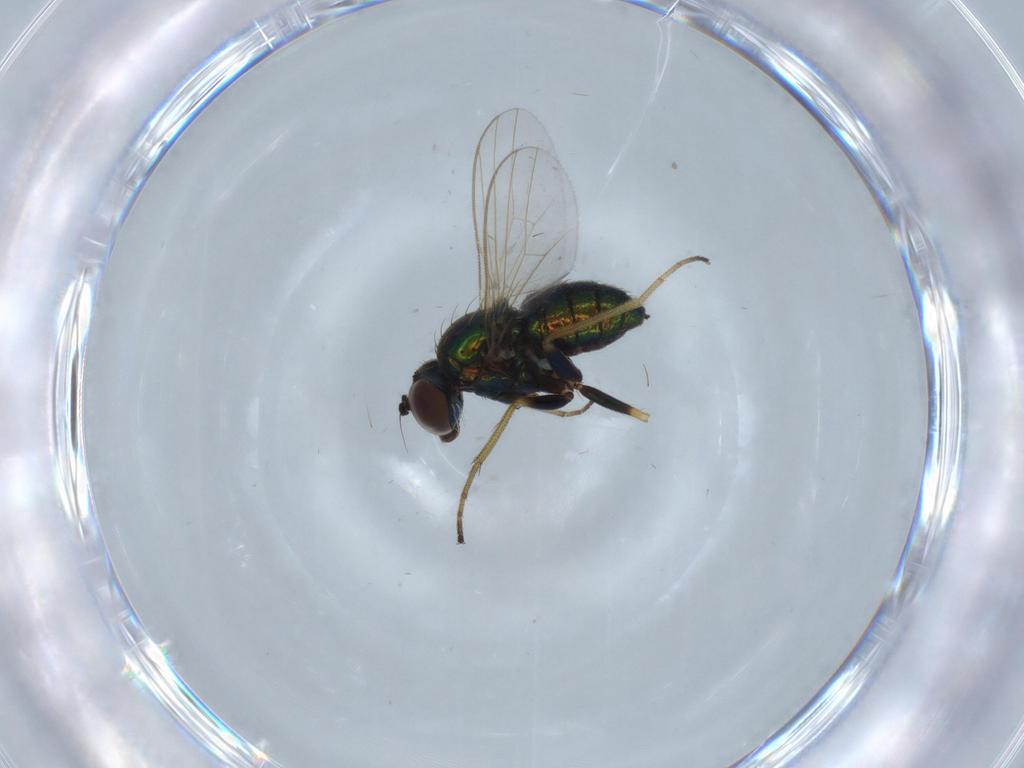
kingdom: Animalia
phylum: Arthropoda
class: Insecta
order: Diptera
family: Dolichopodidae
